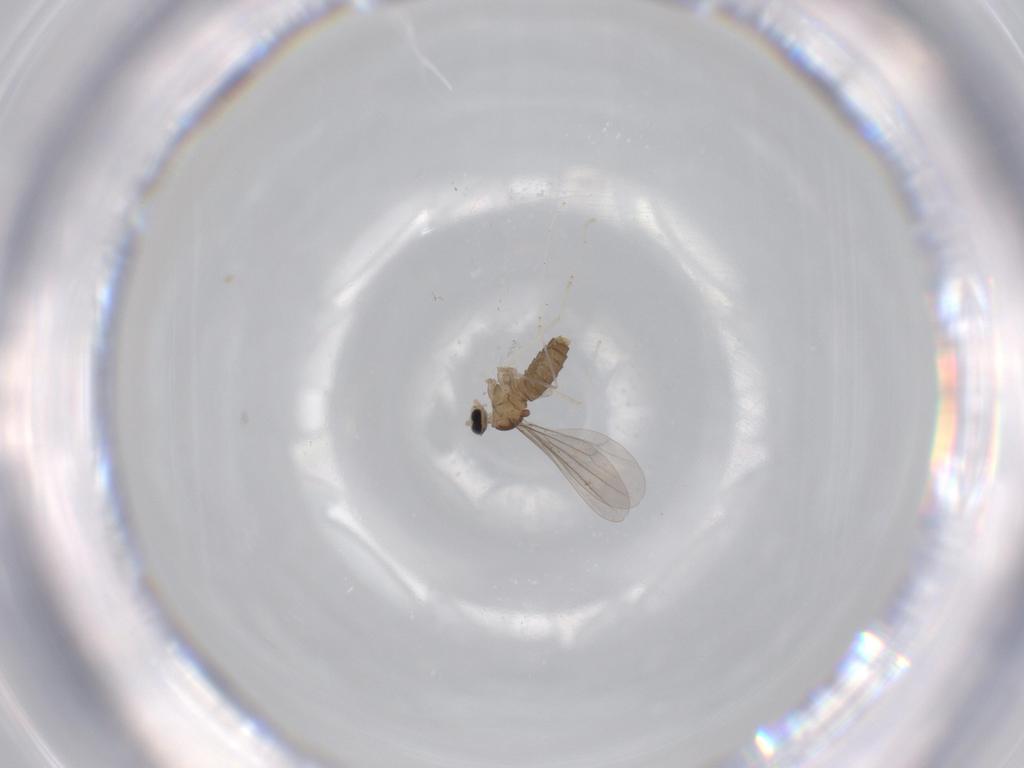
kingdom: Animalia
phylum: Arthropoda
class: Insecta
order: Diptera
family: Cecidomyiidae
